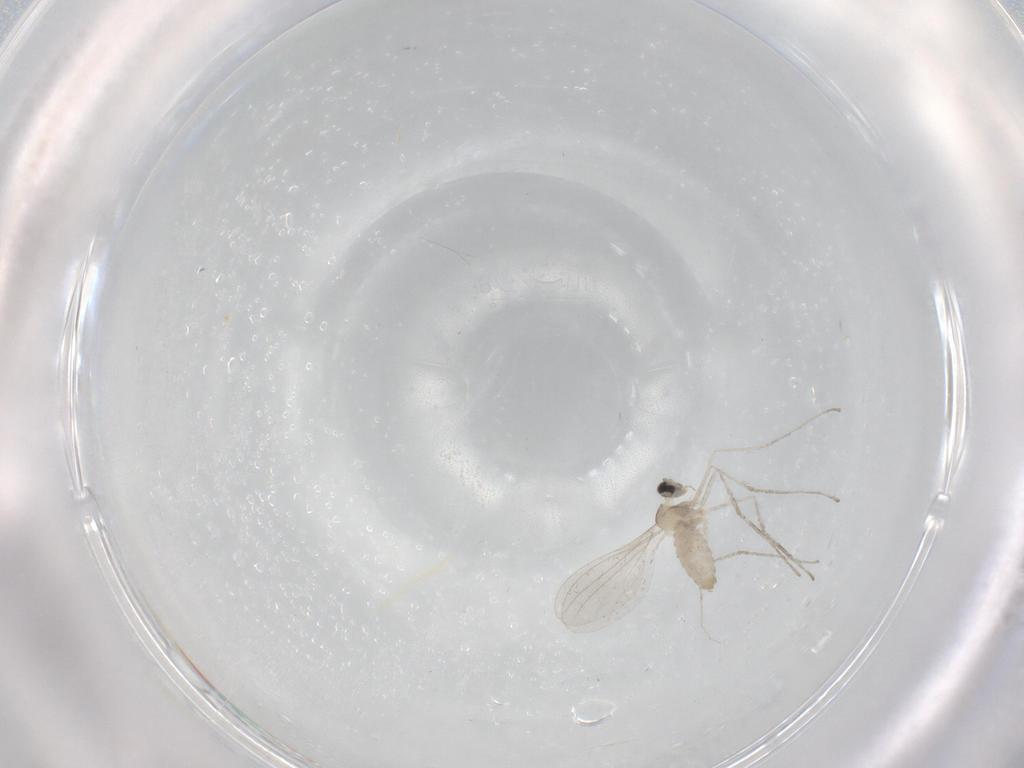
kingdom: Animalia
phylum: Arthropoda
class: Insecta
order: Diptera
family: Cecidomyiidae
